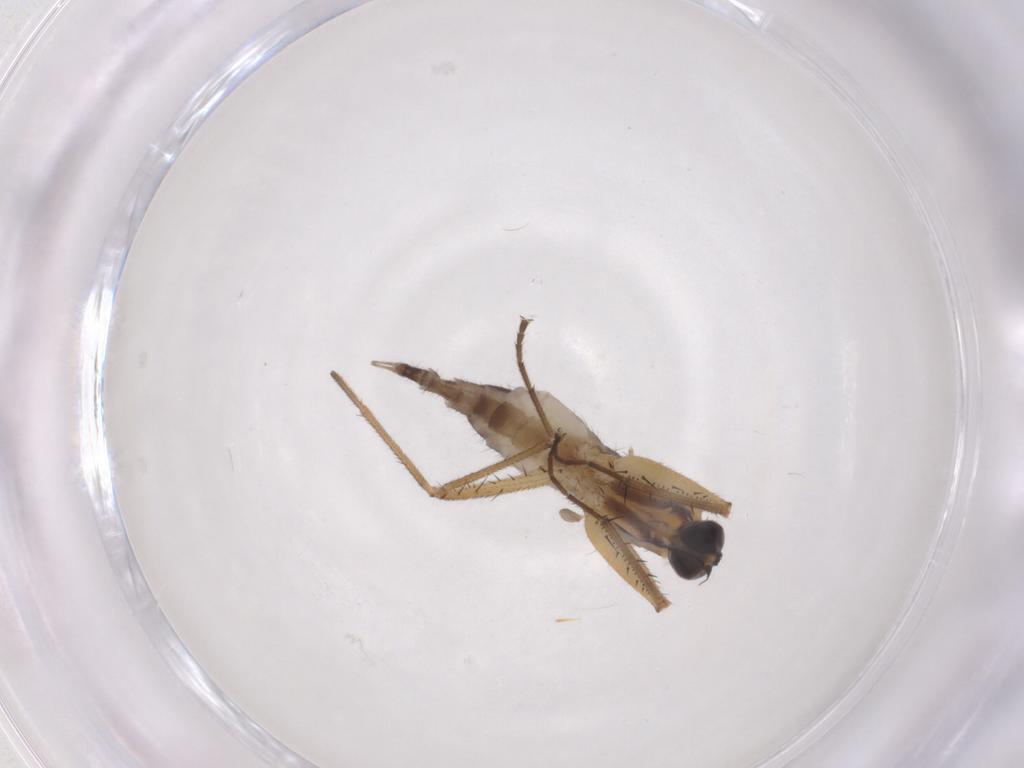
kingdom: Animalia
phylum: Arthropoda
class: Insecta
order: Diptera
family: Empididae
